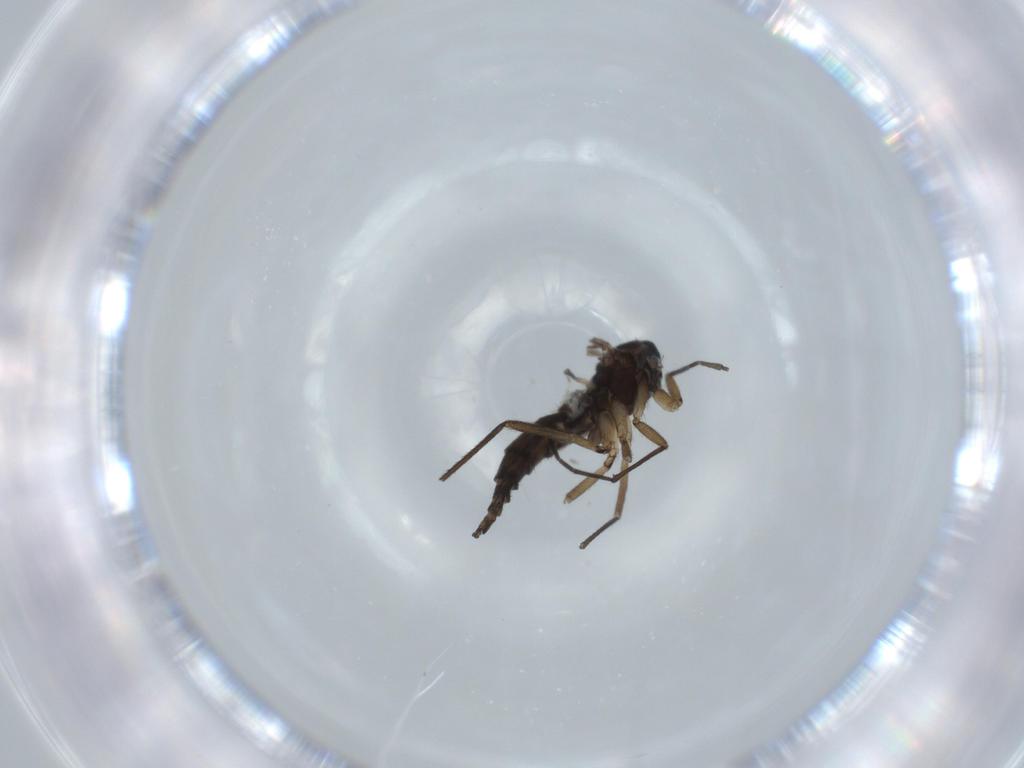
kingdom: Animalia
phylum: Arthropoda
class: Insecta
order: Diptera
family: Sciaridae
